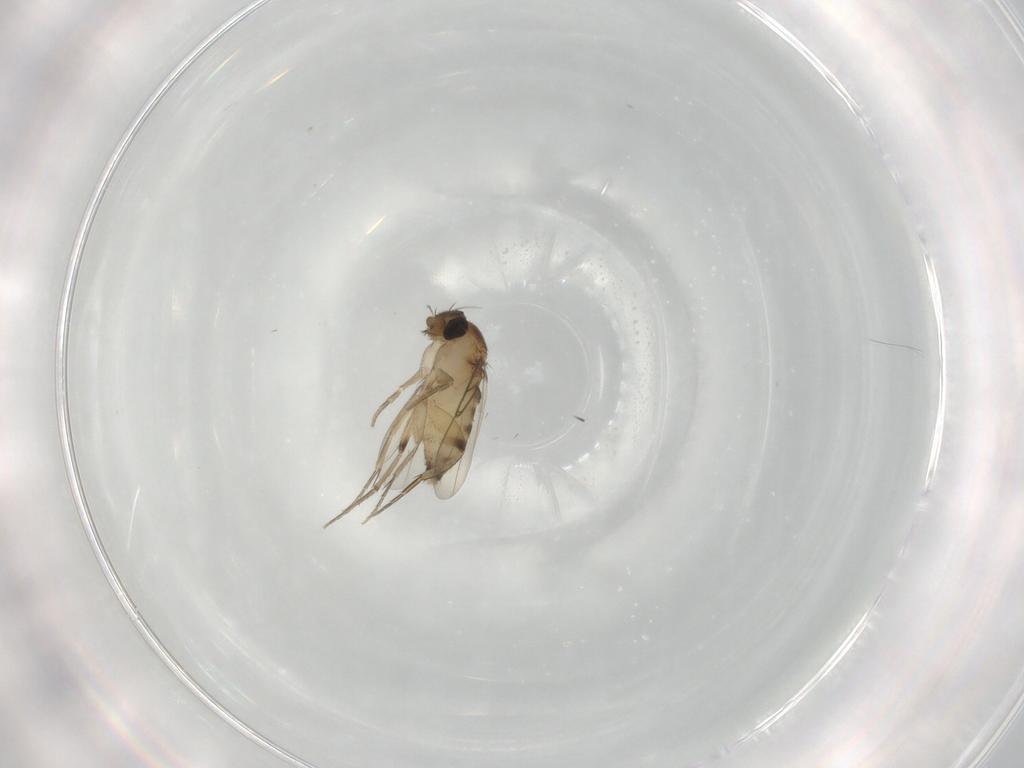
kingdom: Animalia
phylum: Arthropoda
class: Insecta
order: Diptera
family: Phoridae
